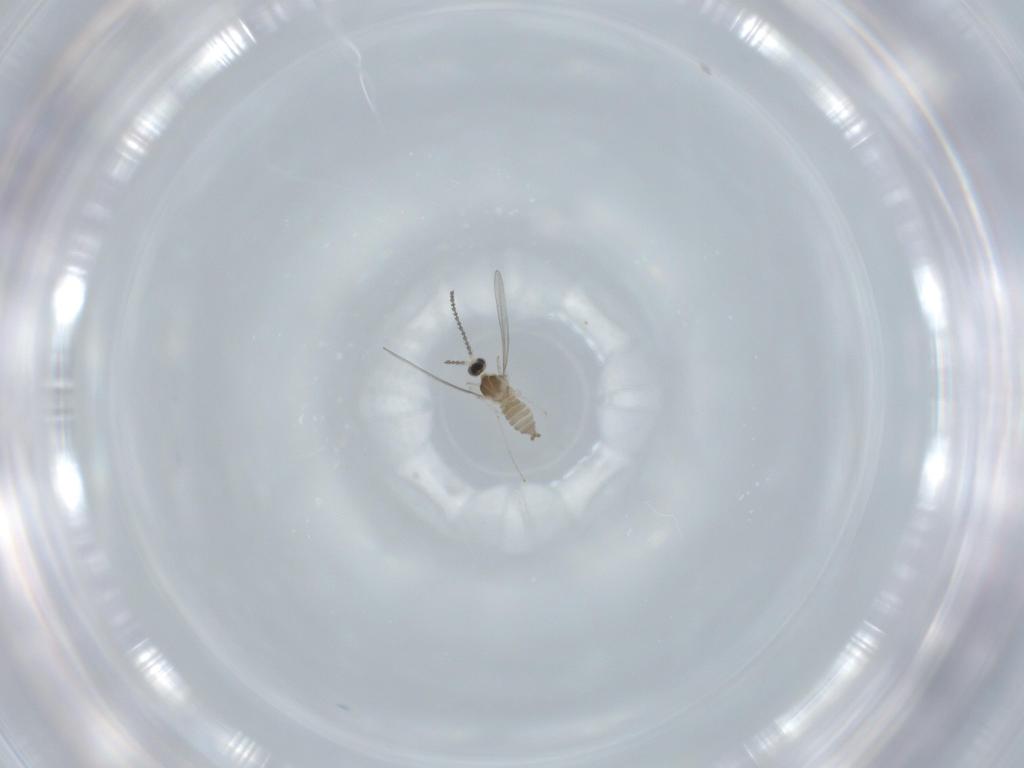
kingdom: Animalia
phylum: Arthropoda
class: Insecta
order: Diptera
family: Cecidomyiidae
